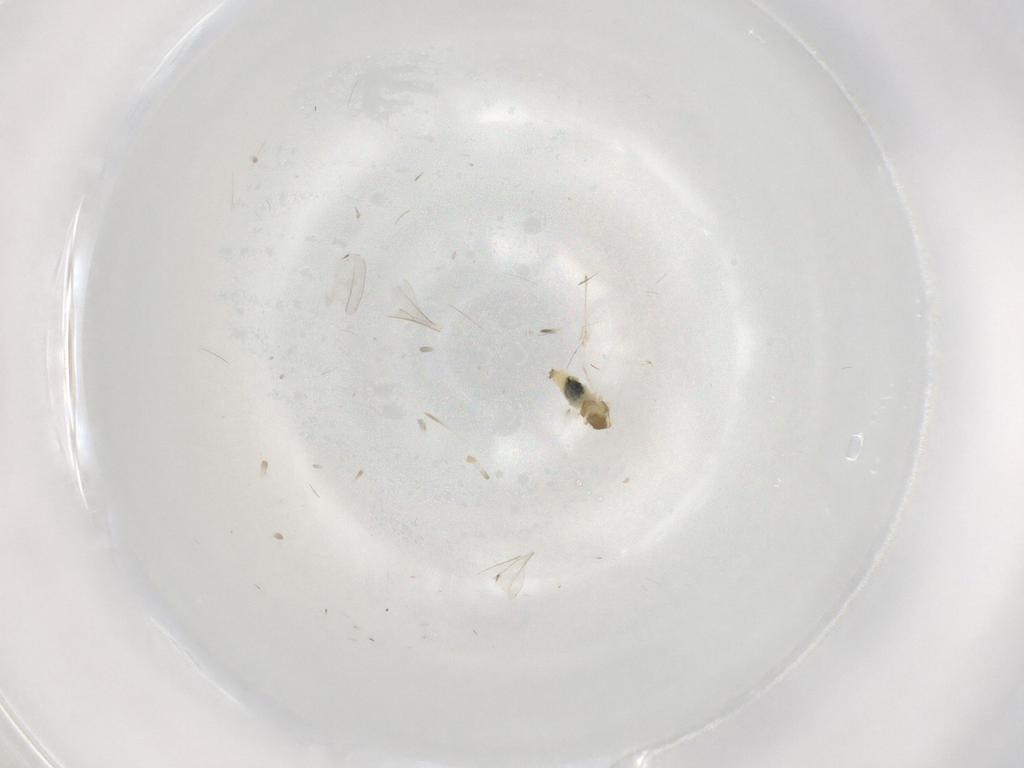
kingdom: Animalia
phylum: Arthropoda
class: Insecta
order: Diptera
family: Cecidomyiidae
